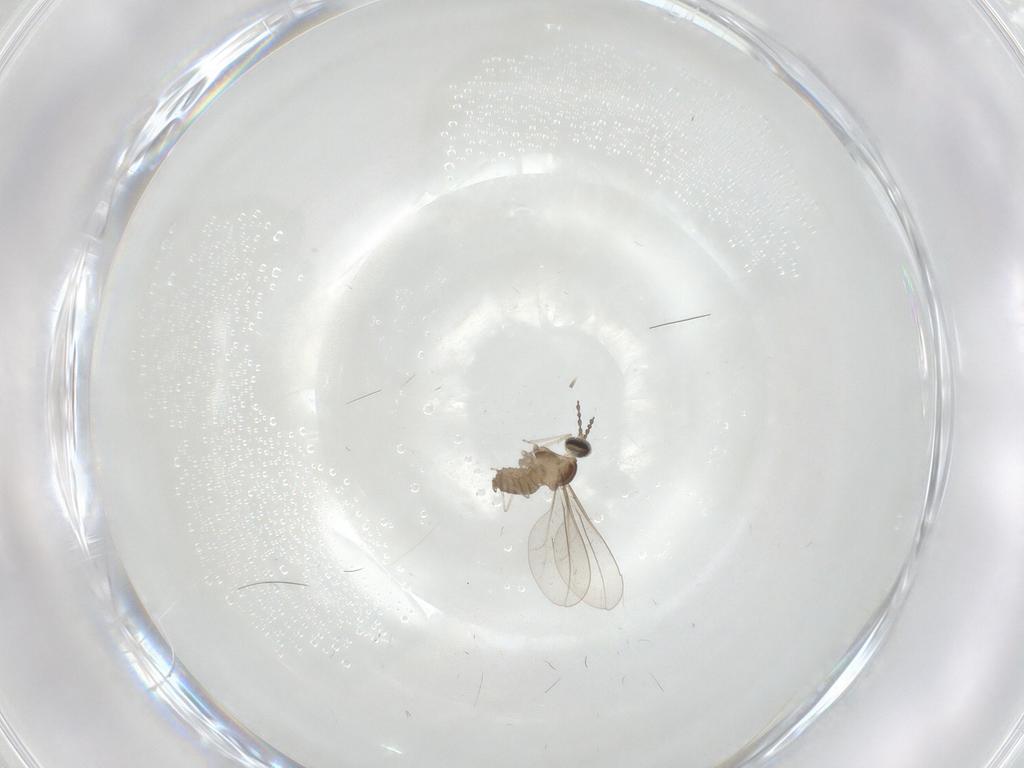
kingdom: Animalia
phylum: Arthropoda
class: Insecta
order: Diptera
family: Cecidomyiidae
